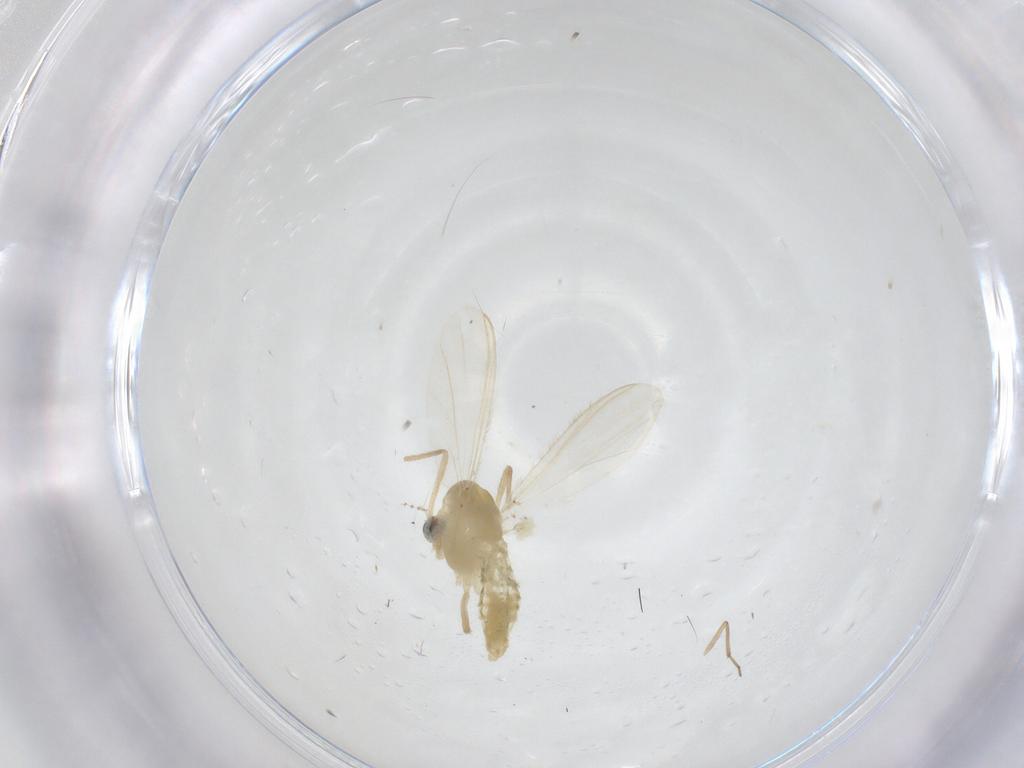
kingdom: Animalia
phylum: Arthropoda
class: Insecta
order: Diptera
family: Chironomidae
